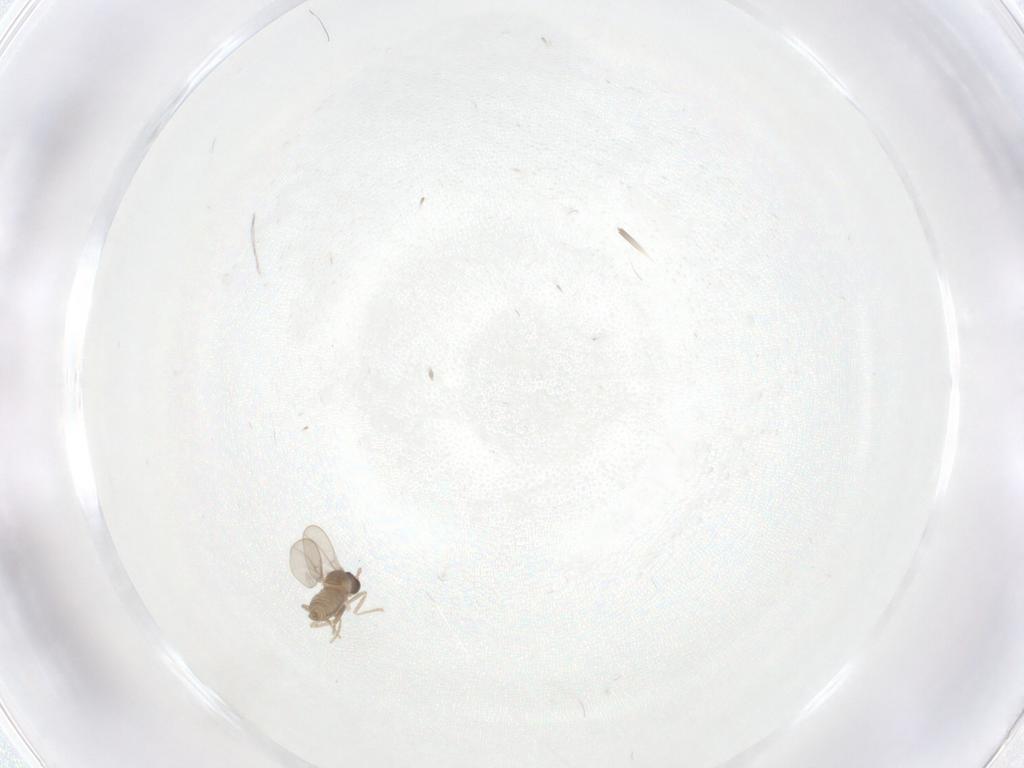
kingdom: Animalia
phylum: Arthropoda
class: Insecta
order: Diptera
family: Cecidomyiidae
